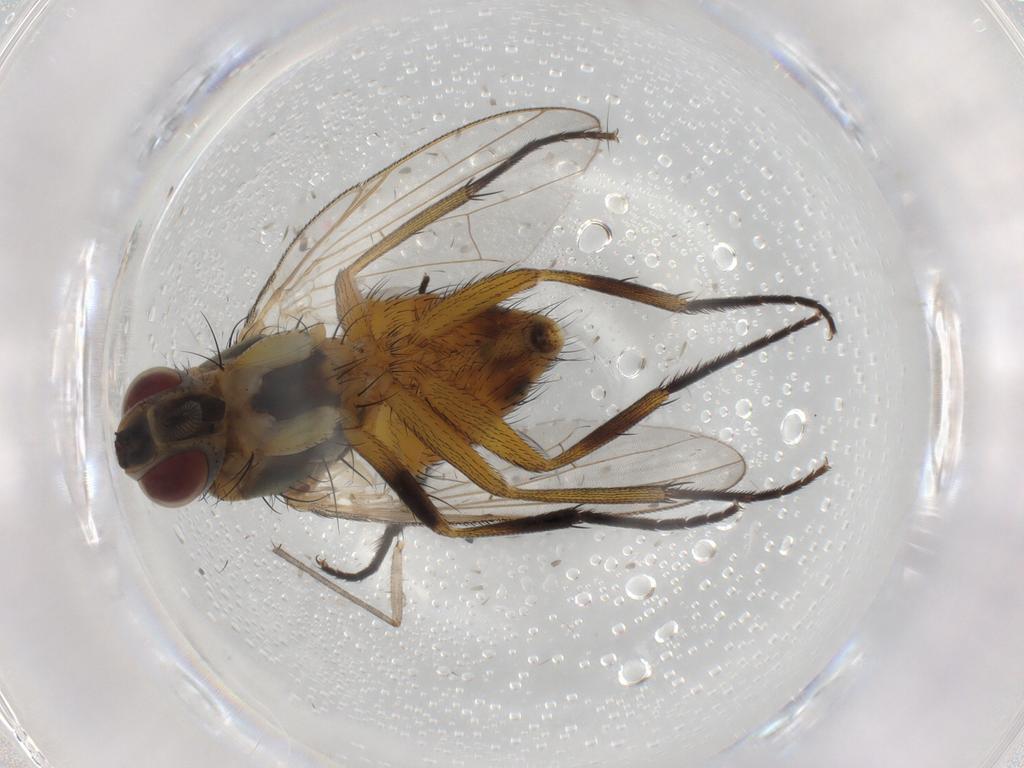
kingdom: Animalia
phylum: Arthropoda
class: Insecta
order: Diptera
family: Muscidae
